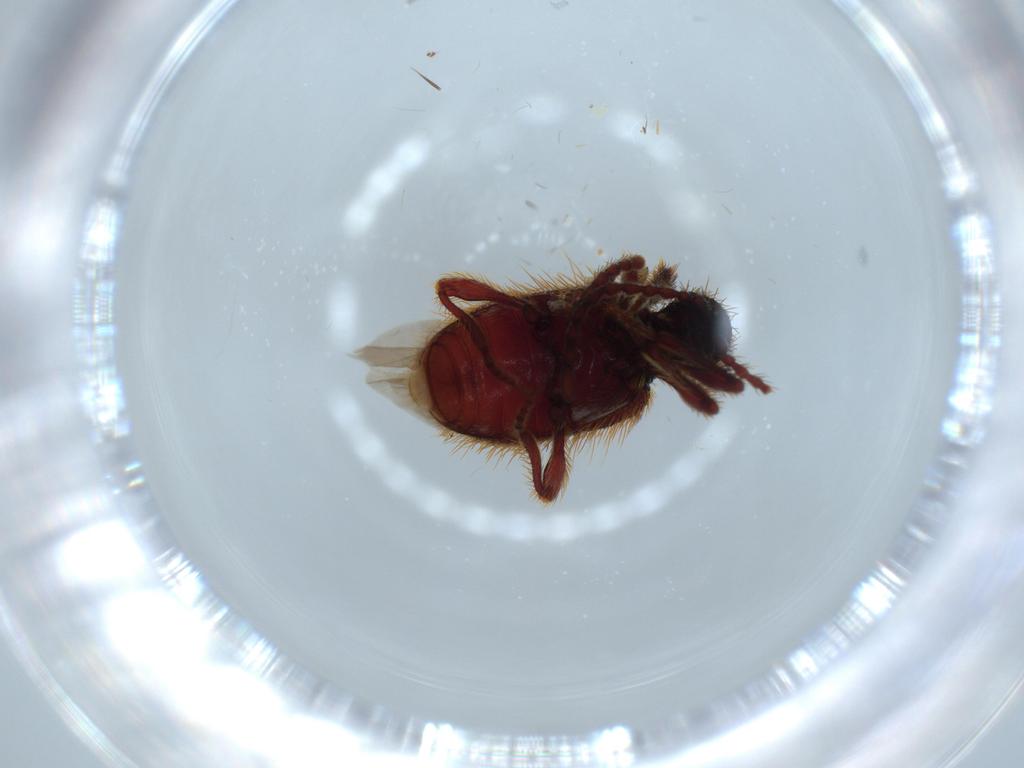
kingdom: Animalia
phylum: Arthropoda
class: Insecta
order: Coleoptera
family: Ptinidae
